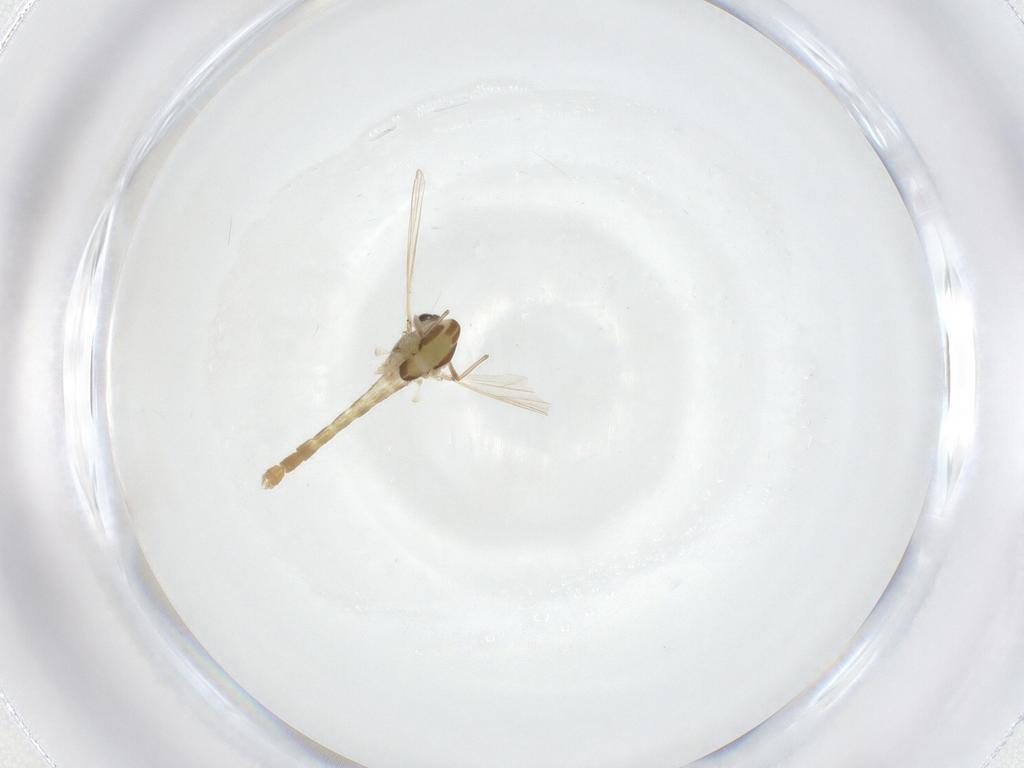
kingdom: Animalia
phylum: Arthropoda
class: Insecta
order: Diptera
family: Chironomidae
